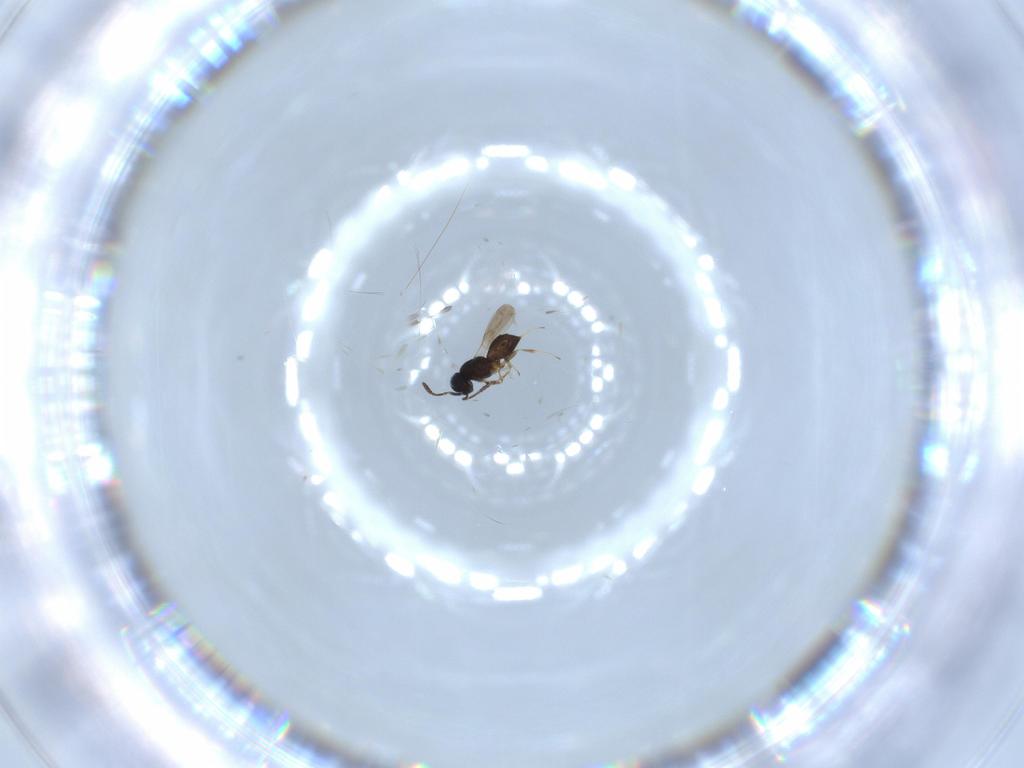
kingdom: Animalia
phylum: Arthropoda
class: Insecta
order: Hymenoptera
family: Scelionidae
